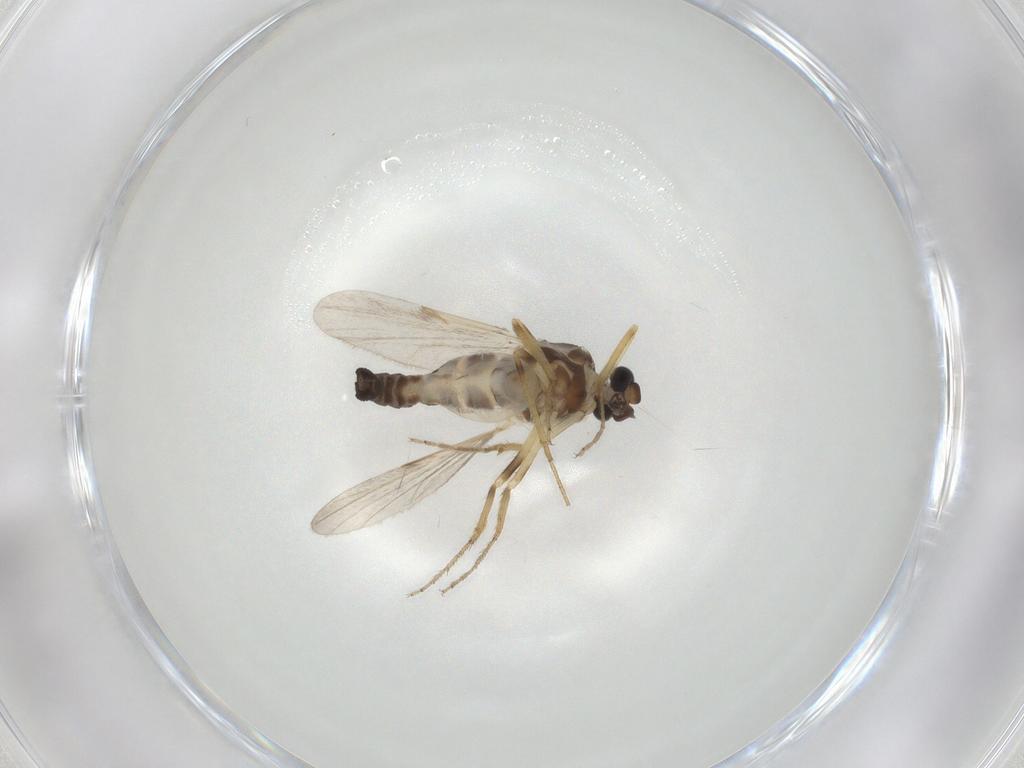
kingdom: Animalia
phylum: Arthropoda
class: Insecta
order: Diptera
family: Ceratopogonidae
